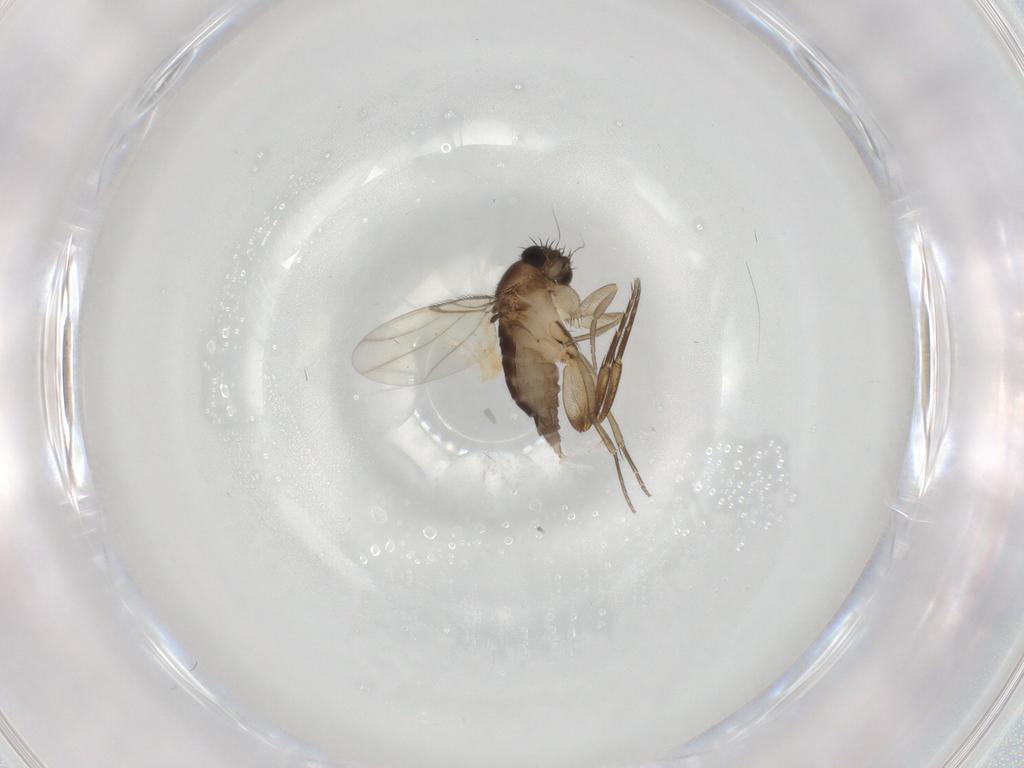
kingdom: Animalia
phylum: Arthropoda
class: Insecta
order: Diptera
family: Phoridae
